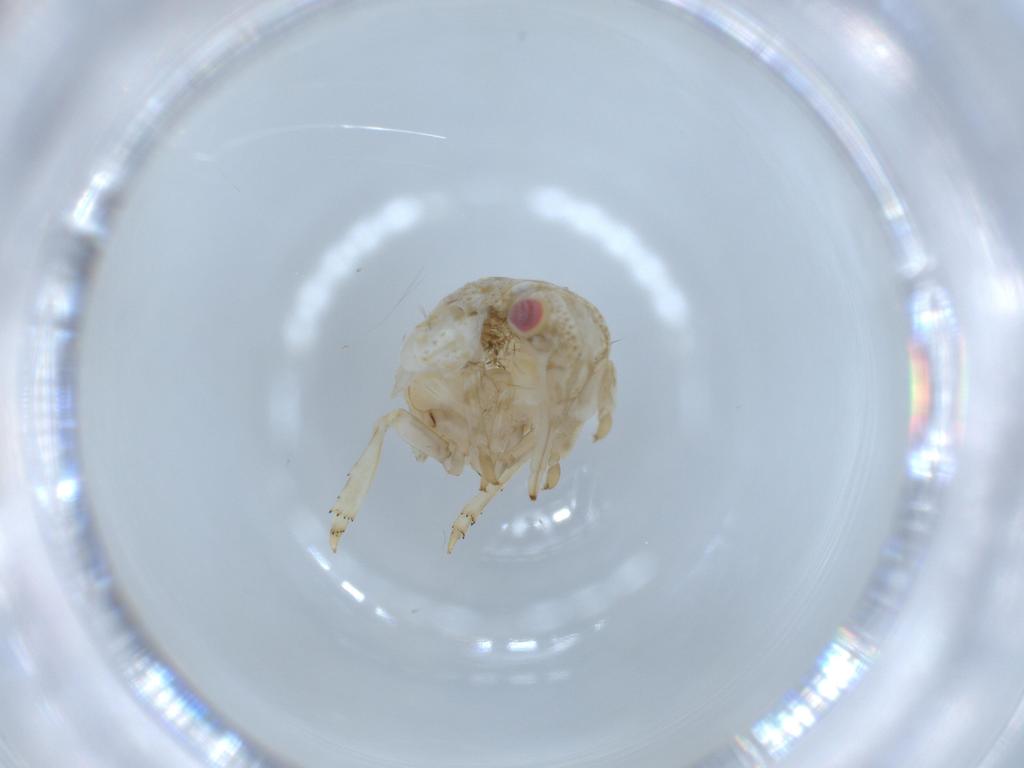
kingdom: Animalia
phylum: Arthropoda
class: Insecta
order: Hemiptera
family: Acanaloniidae
